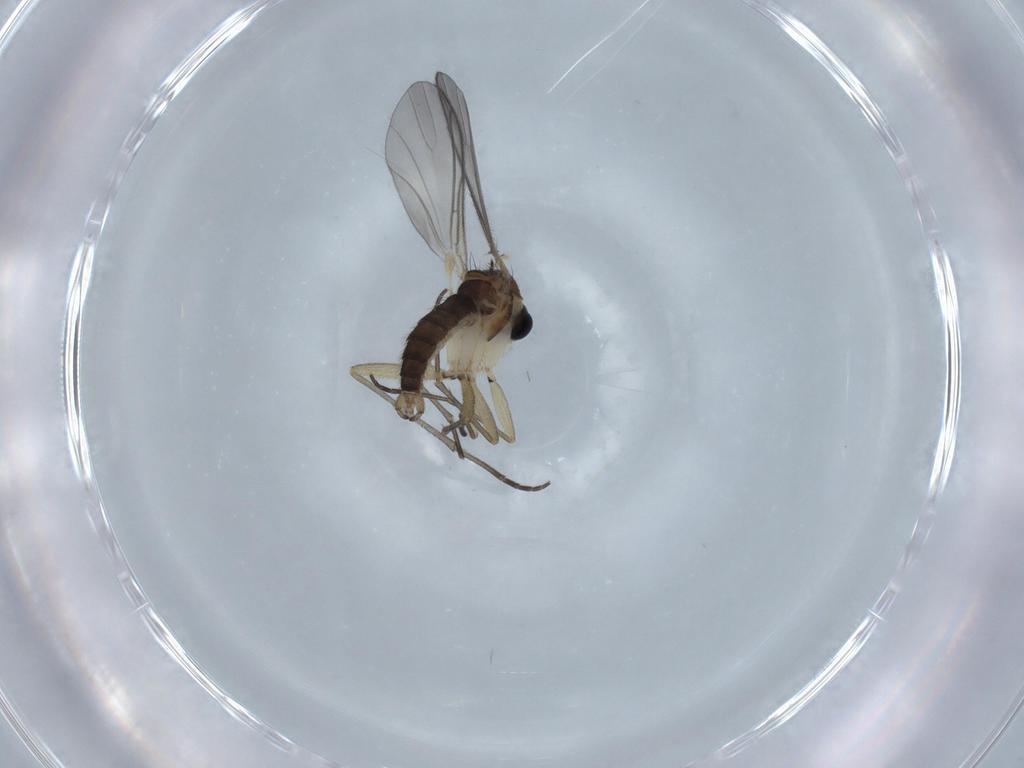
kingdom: Animalia
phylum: Arthropoda
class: Insecta
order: Diptera
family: Sciaridae
